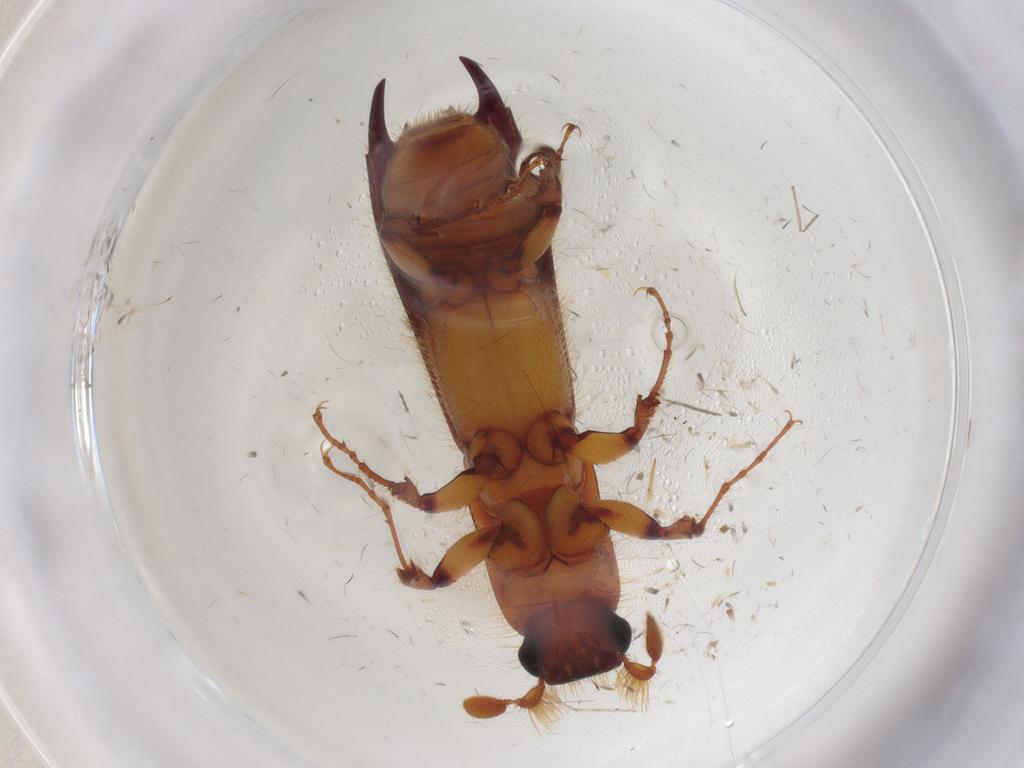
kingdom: Animalia
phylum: Arthropoda
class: Insecta
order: Coleoptera
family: Curculionidae
